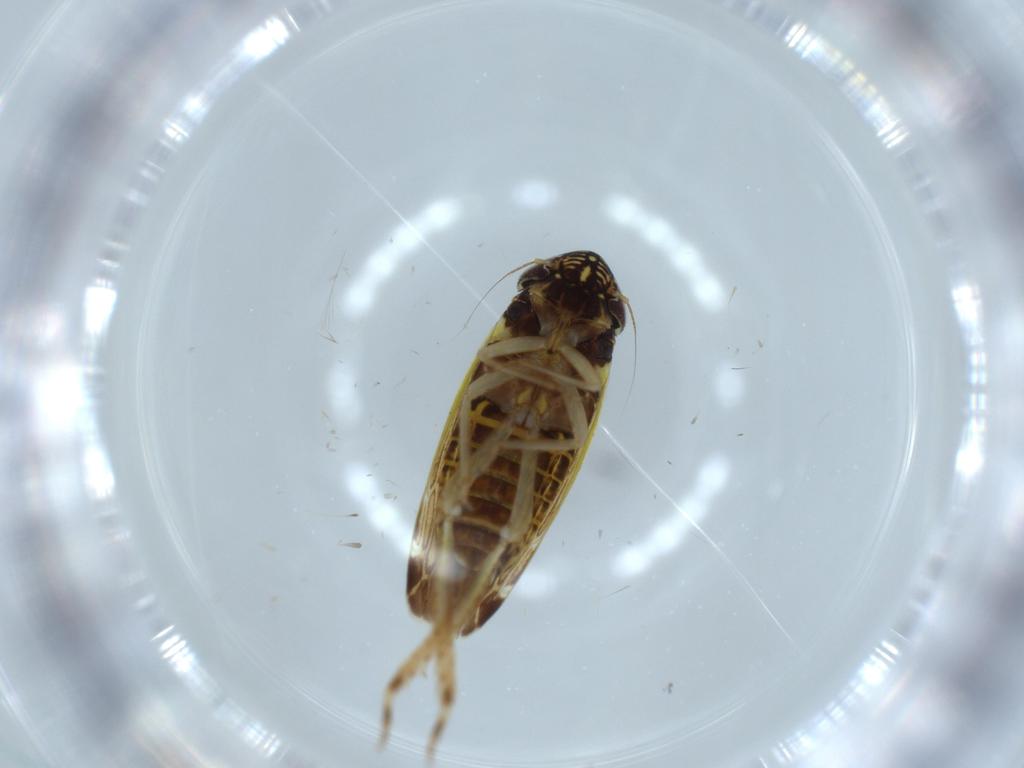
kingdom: Animalia
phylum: Arthropoda
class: Insecta
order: Hemiptera
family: Cicadellidae
